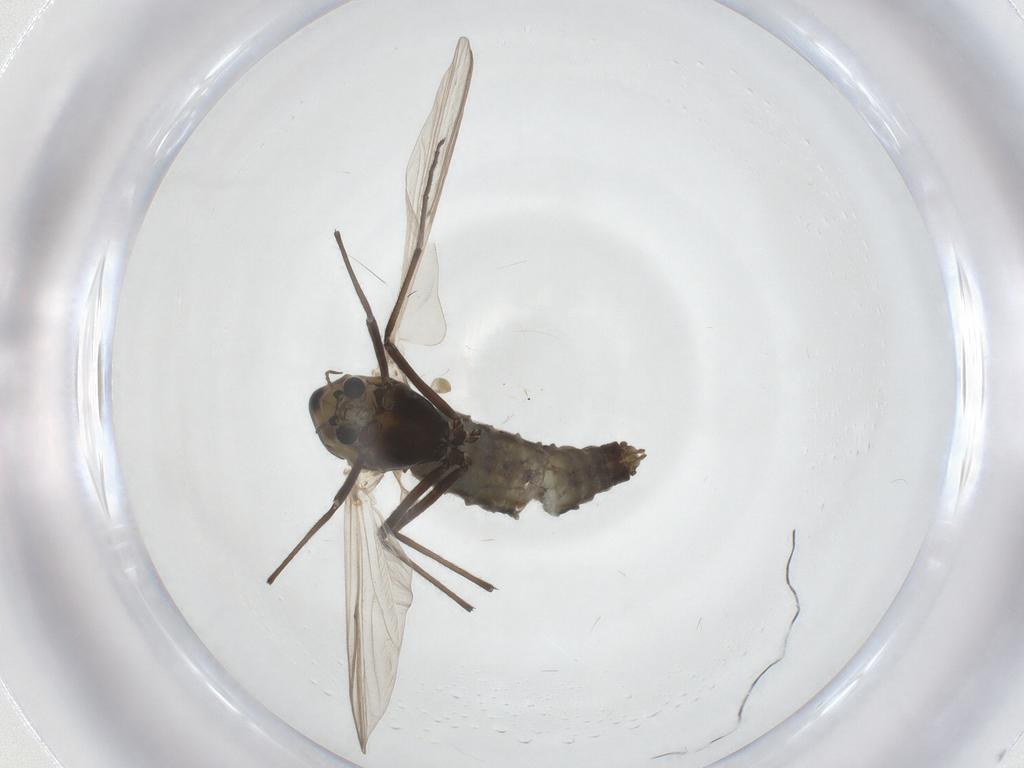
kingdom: Animalia
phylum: Arthropoda
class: Insecta
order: Diptera
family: Chironomidae
